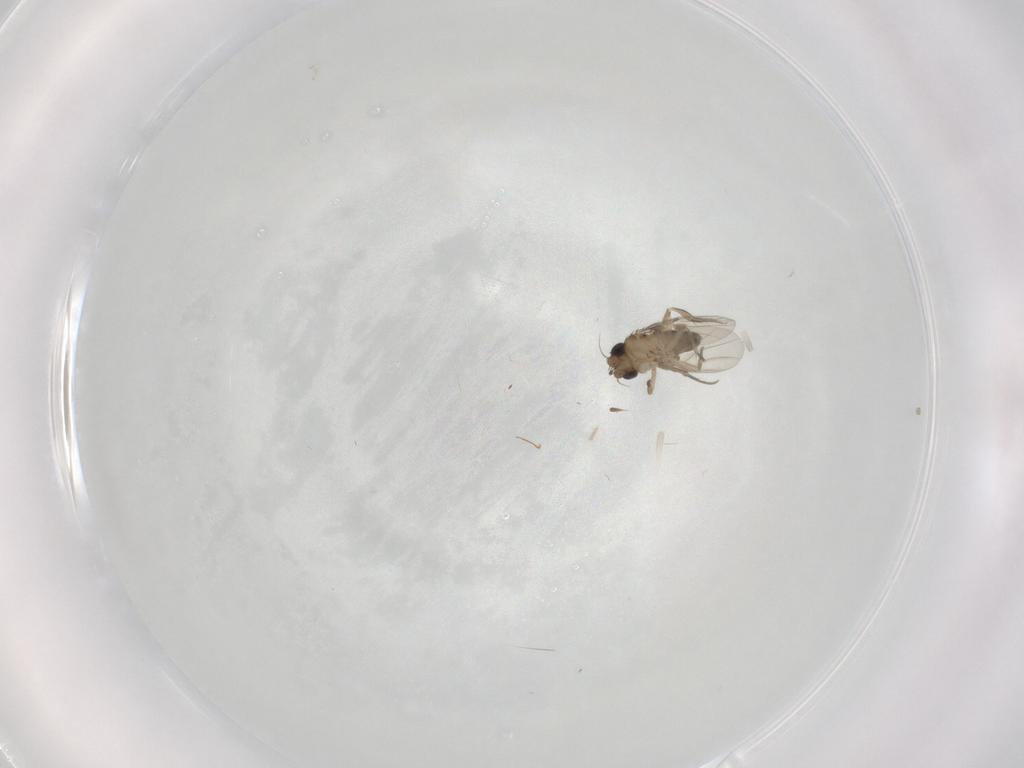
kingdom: Animalia
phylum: Arthropoda
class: Insecta
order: Diptera
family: Phoridae
